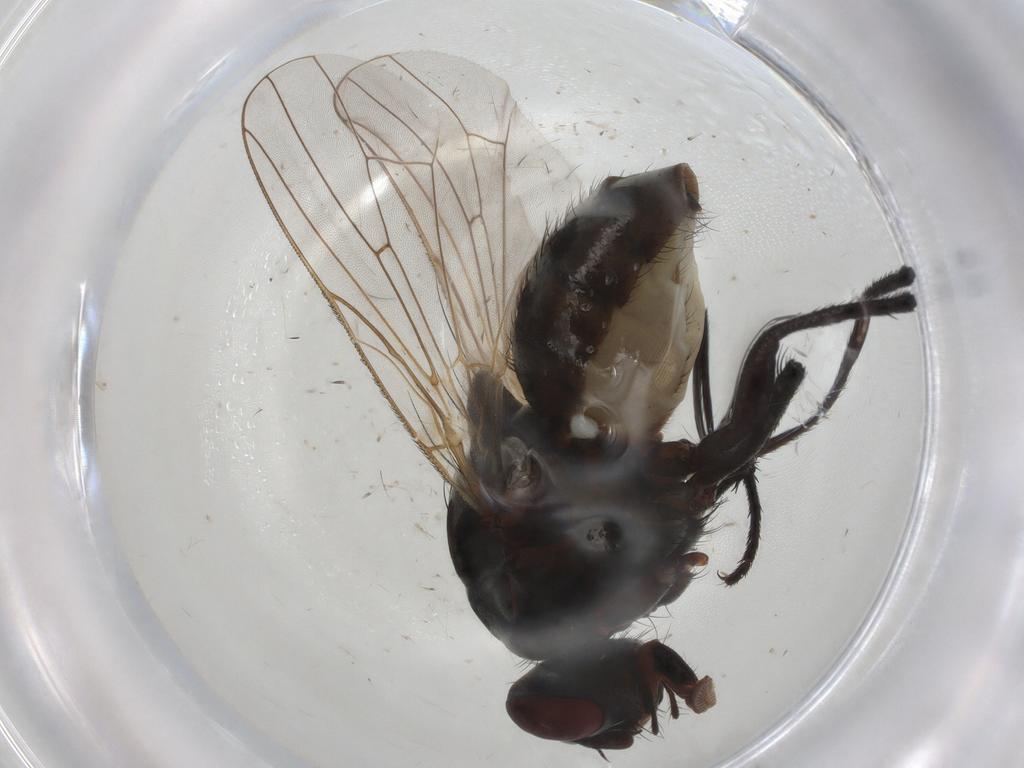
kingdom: Animalia
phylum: Arthropoda
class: Insecta
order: Diptera
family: Anthomyiidae
